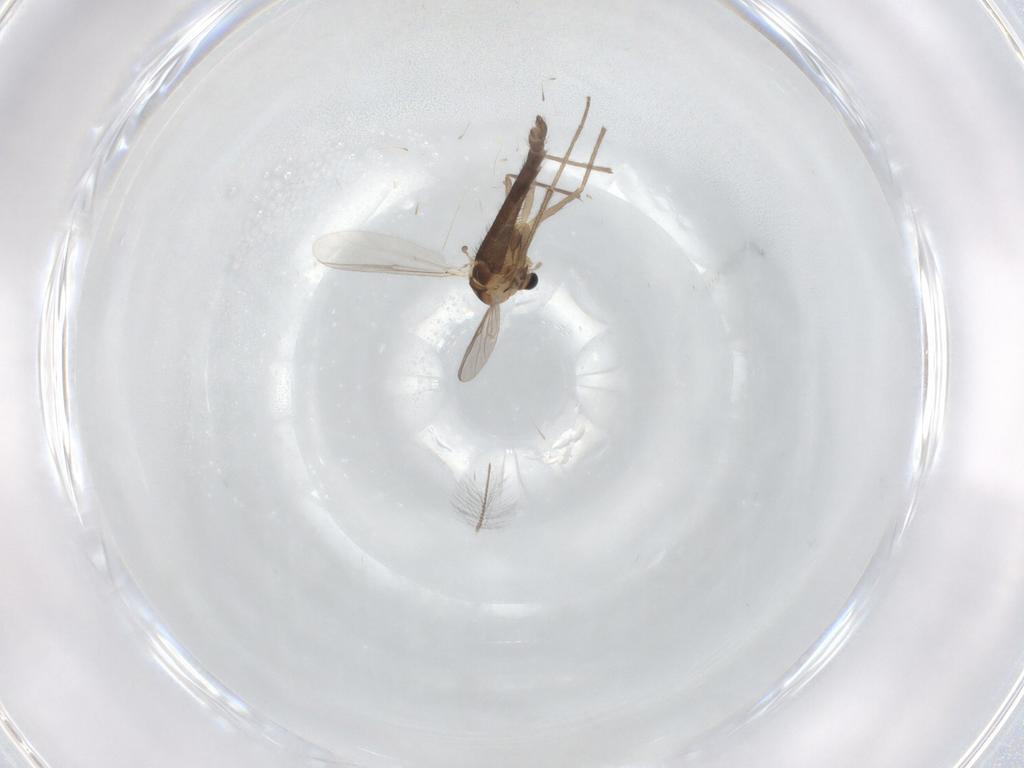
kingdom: Animalia
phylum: Arthropoda
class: Insecta
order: Diptera
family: Chironomidae
